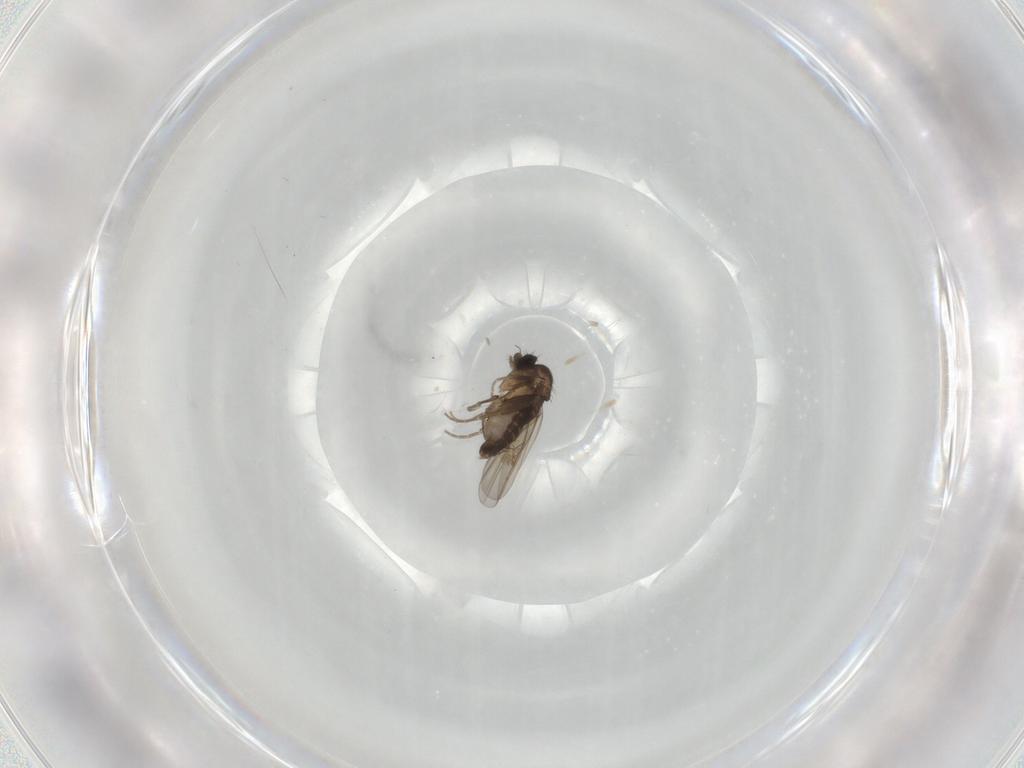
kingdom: Animalia
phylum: Arthropoda
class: Insecta
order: Diptera
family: Phoridae
